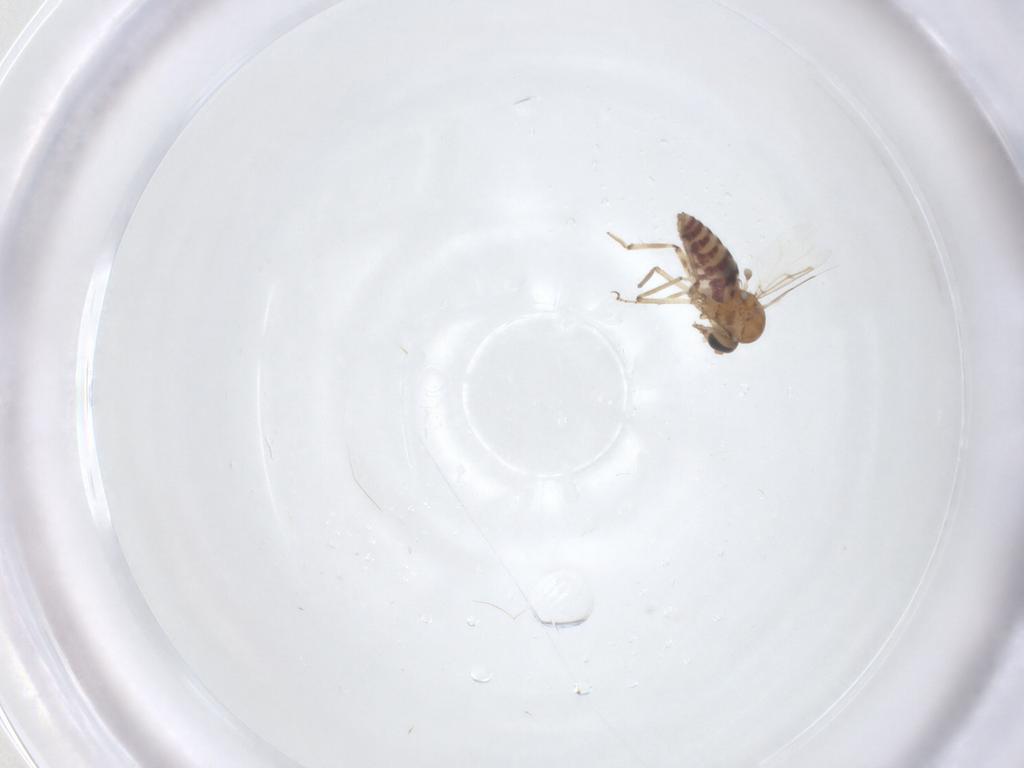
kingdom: Animalia
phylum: Arthropoda
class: Insecta
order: Diptera
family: Ceratopogonidae
